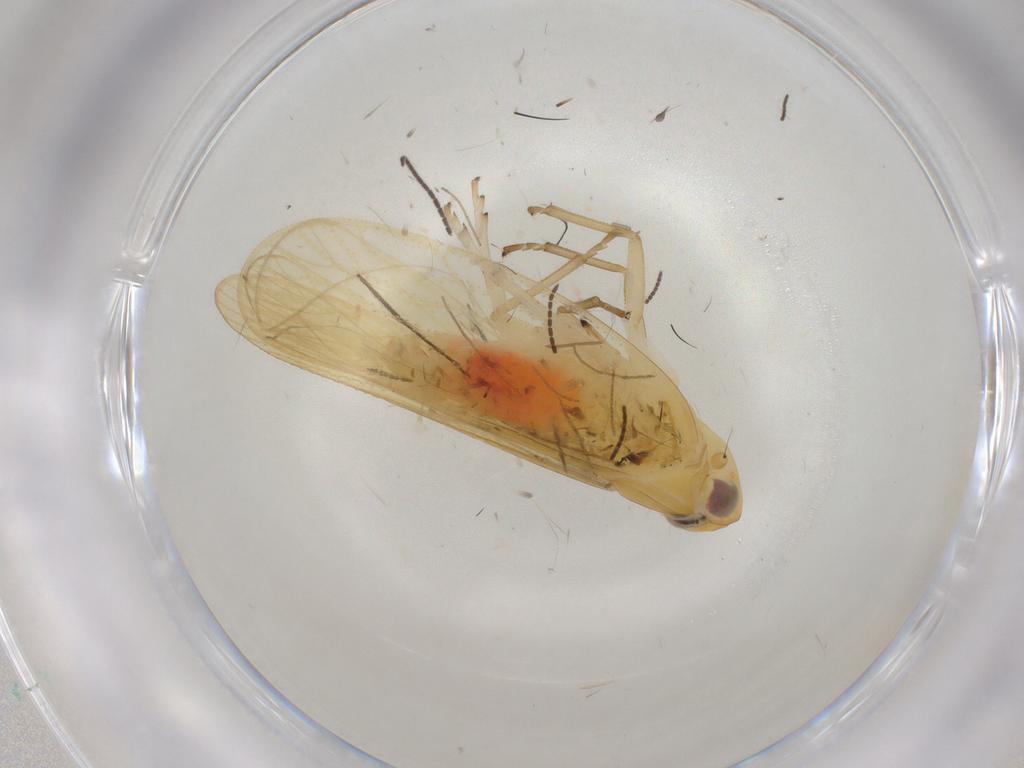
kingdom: Animalia
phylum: Arthropoda
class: Insecta
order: Hemiptera
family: Cixiidae
